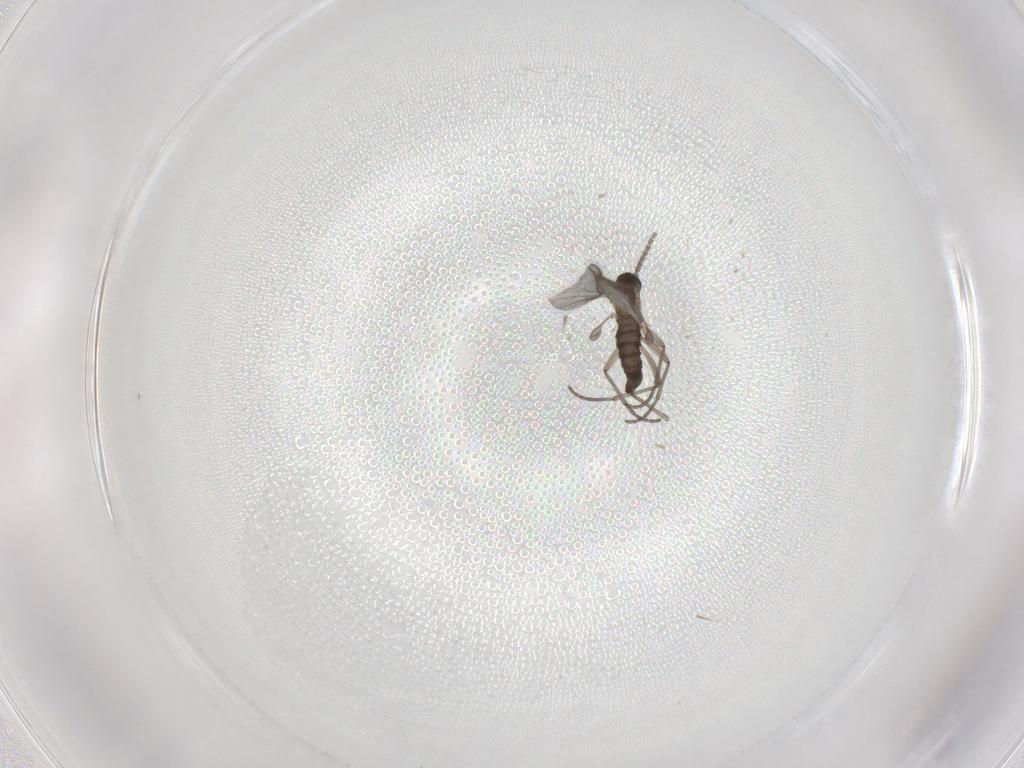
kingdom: Animalia
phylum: Arthropoda
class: Insecta
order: Diptera
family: Sciaridae
